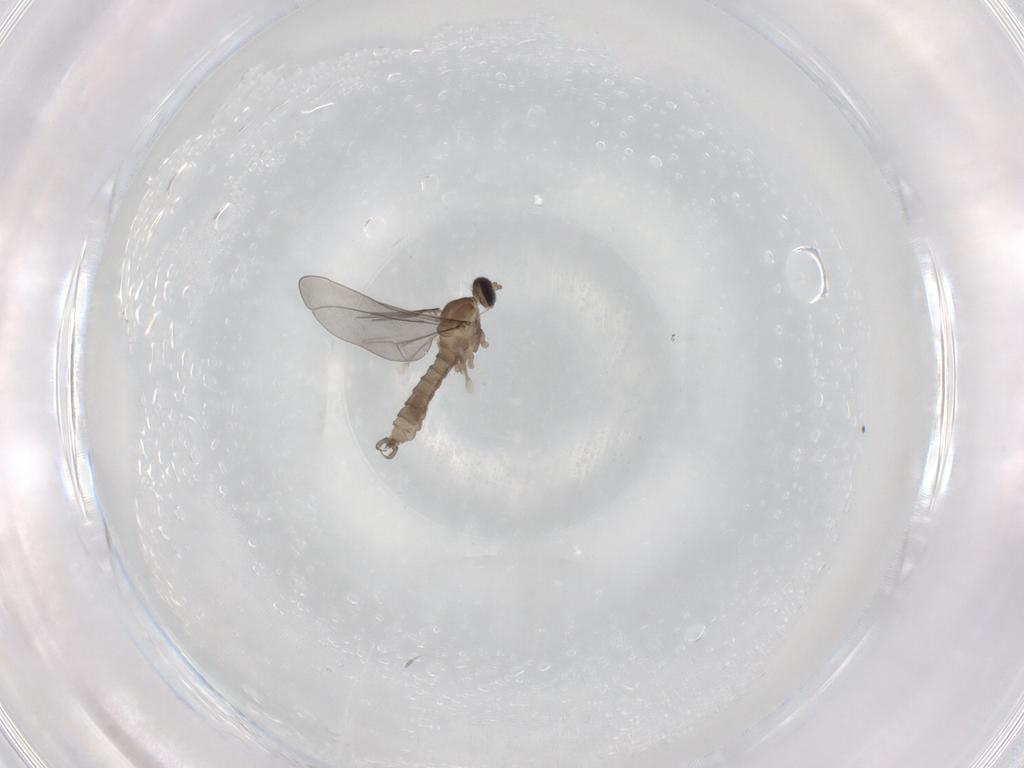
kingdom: Animalia
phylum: Arthropoda
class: Insecta
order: Diptera
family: Cecidomyiidae
